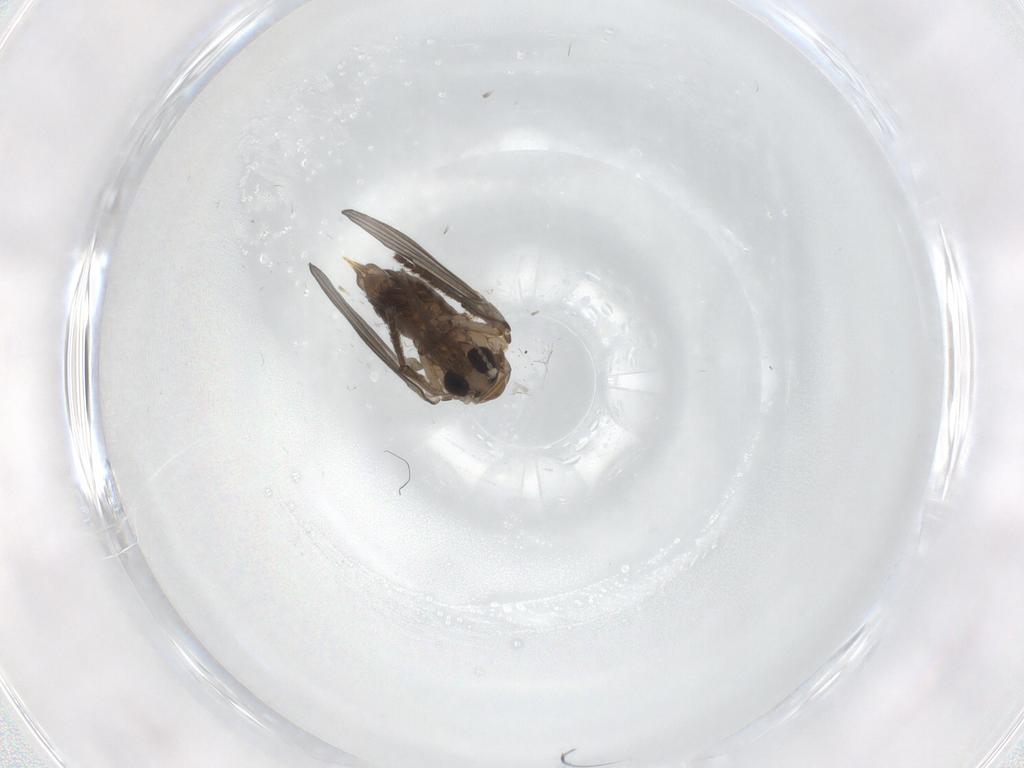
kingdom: Animalia
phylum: Arthropoda
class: Insecta
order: Diptera
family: Psychodidae
